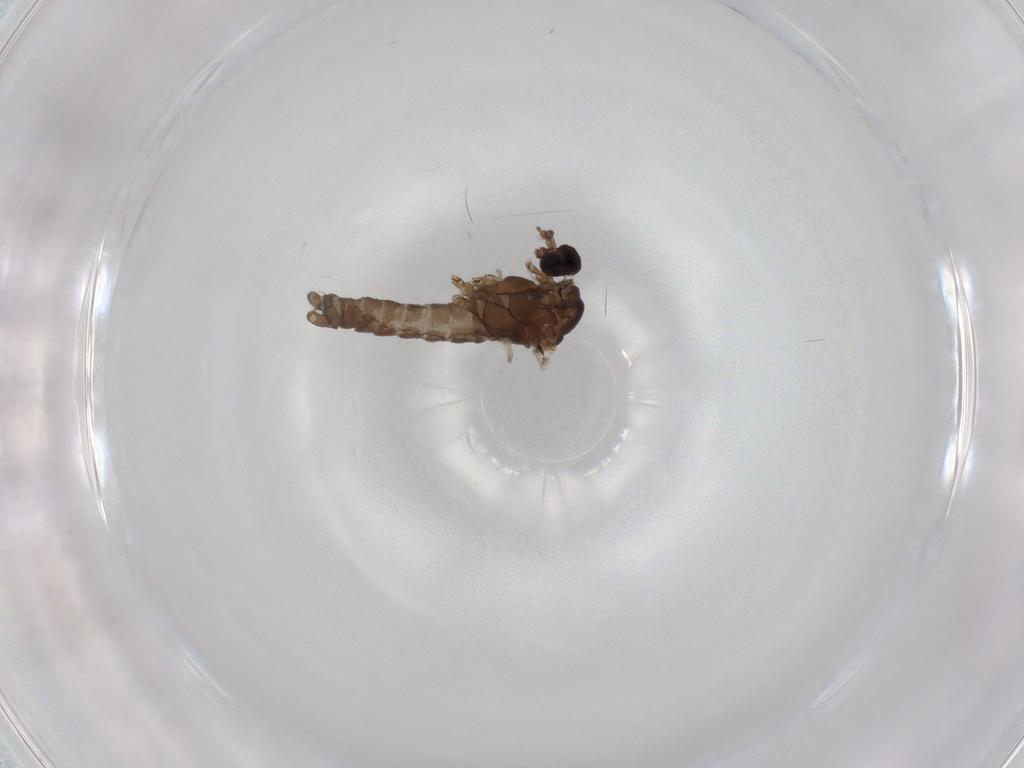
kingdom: Animalia
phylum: Arthropoda
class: Insecta
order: Diptera
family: Limoniidae
